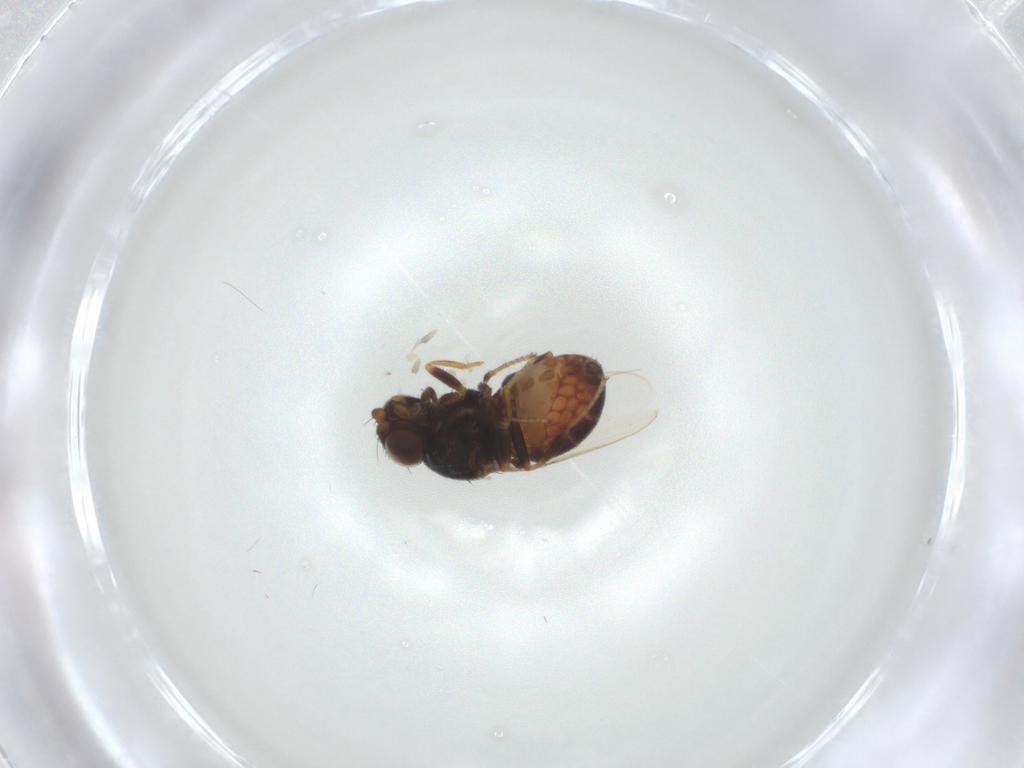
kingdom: Animalia
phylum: Arthropoda
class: Insecta
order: Diptera
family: Chloropidae
